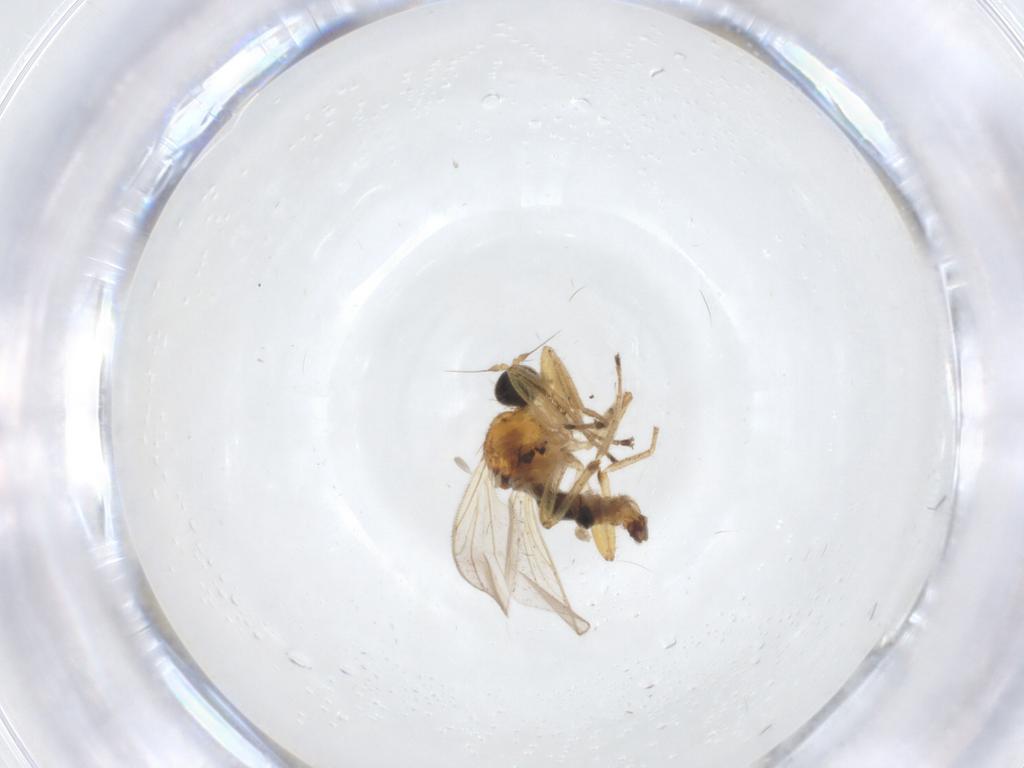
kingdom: Animalia
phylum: Arthropoda
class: Insecta
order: Diptera
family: Hybotidae
